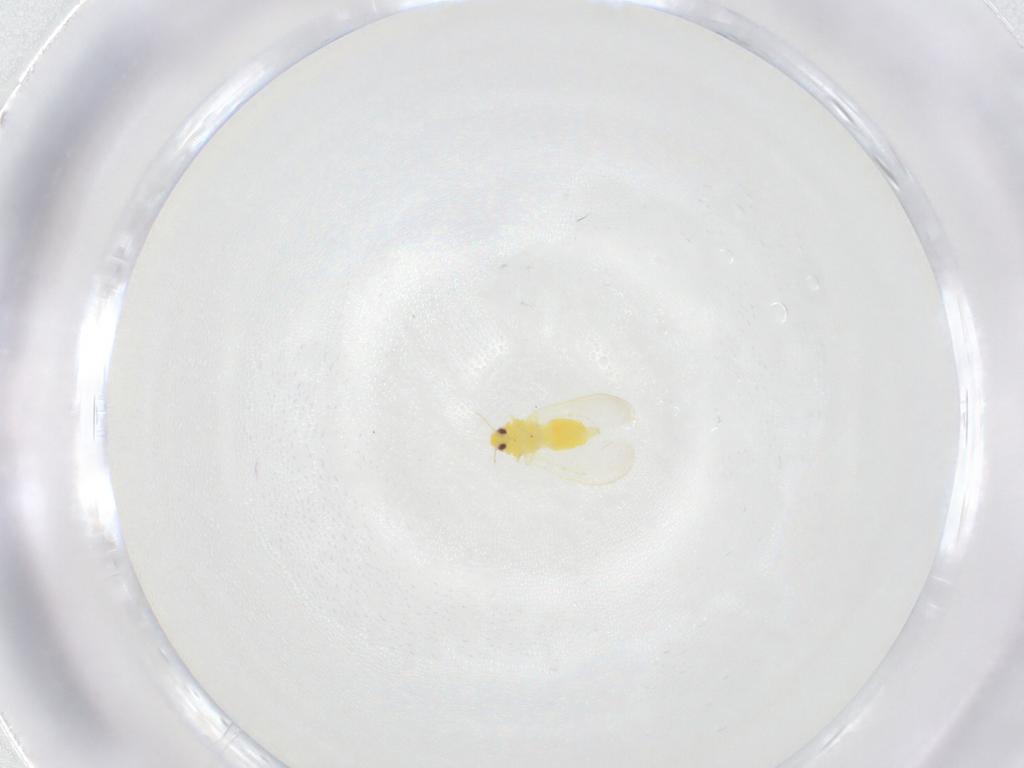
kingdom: Animalia
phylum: Arthropoda
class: Insecta
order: Hemiptera
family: Aleyrodidae
